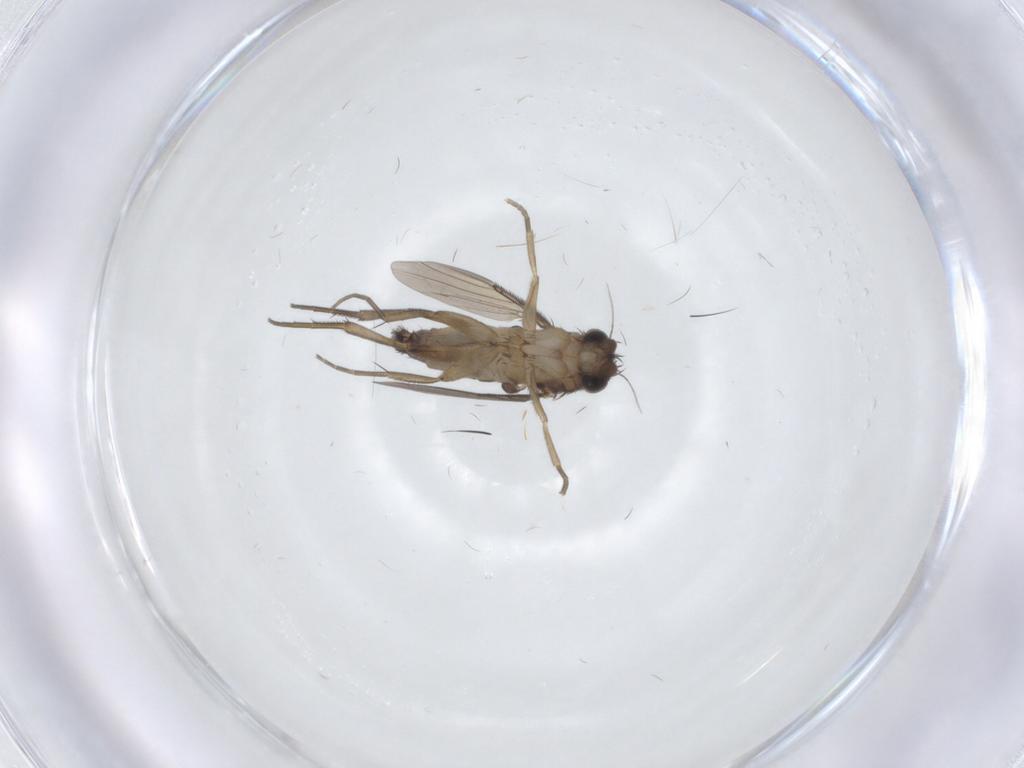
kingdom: Animalia
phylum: Arthropoda
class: Insecta
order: Diptera
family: Phoridae
